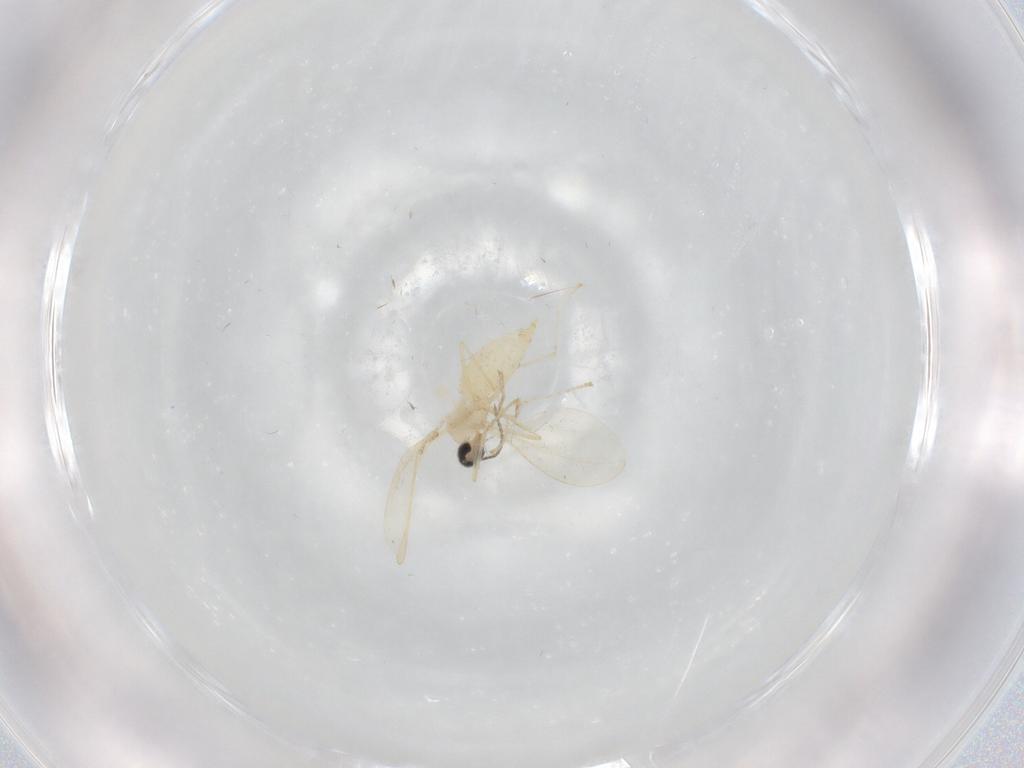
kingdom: Animalia
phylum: Arthropoda
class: Insecta
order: Diptera
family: Cecidomyiidae
